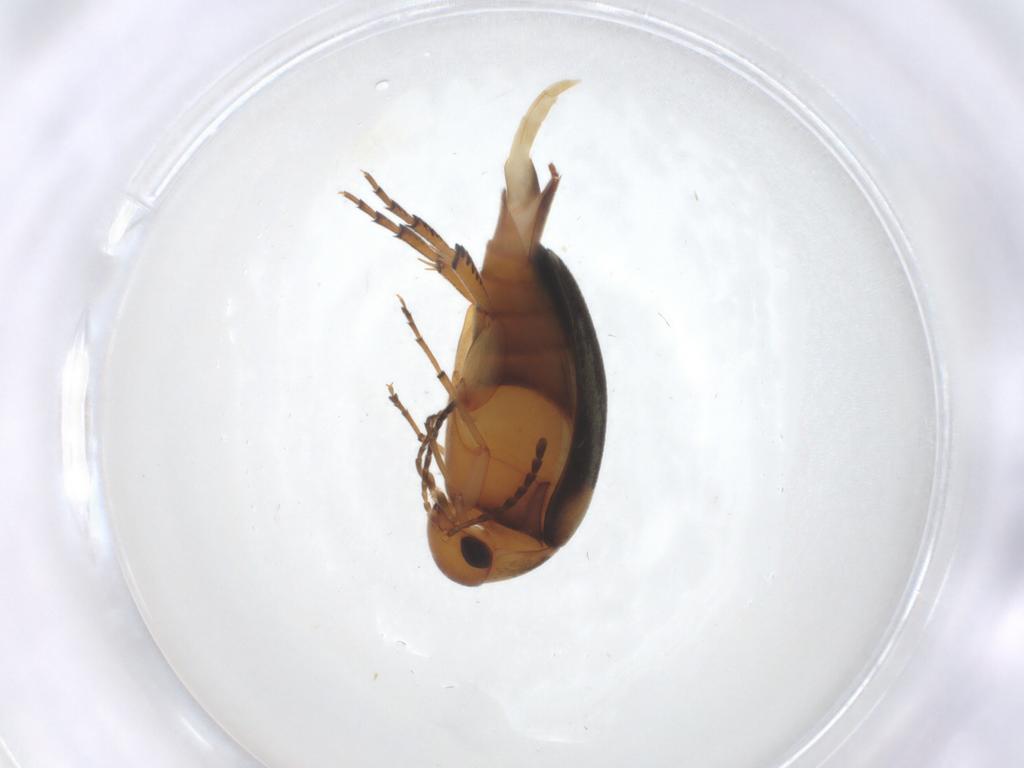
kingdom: Animalia
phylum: Arthropoda
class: Insecta
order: Coleoptera
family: Mordellidae
